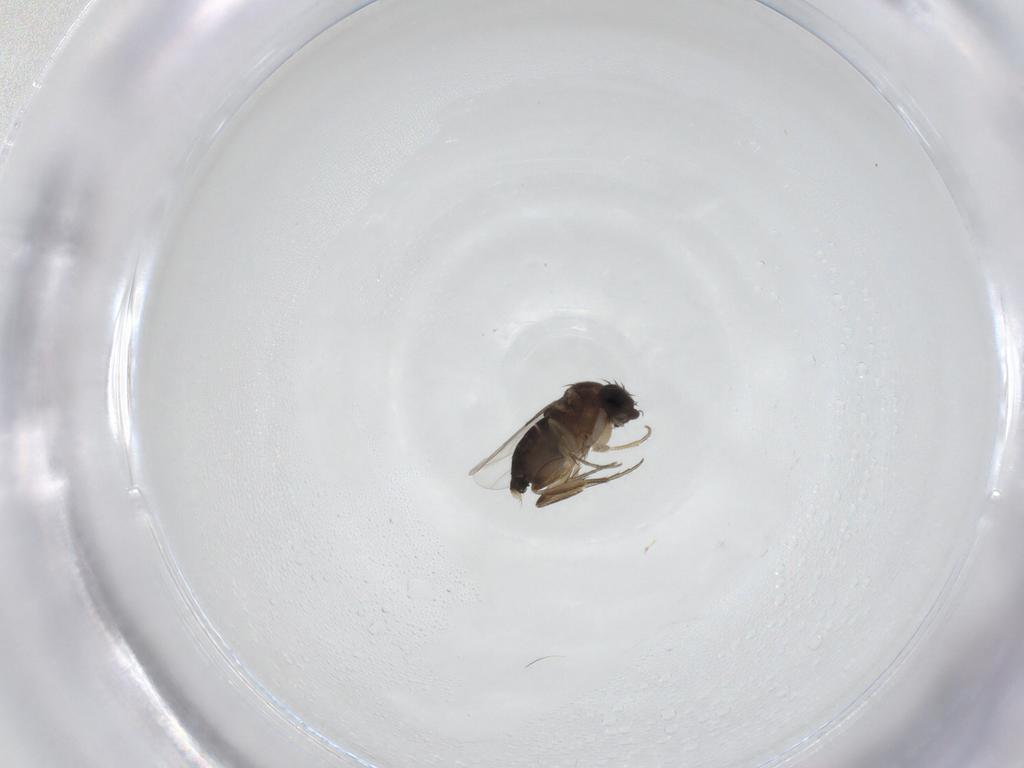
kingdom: Animalia
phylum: Arthropoda
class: Insecta
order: Diptera
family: Phoridae
